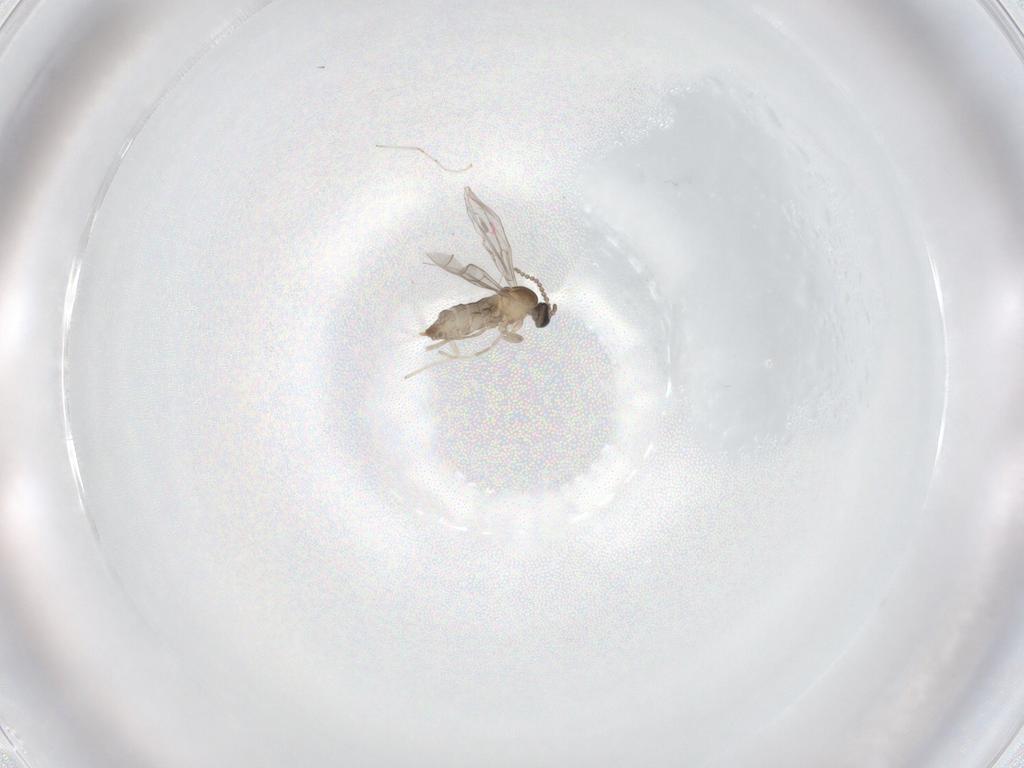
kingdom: Animalia
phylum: Arthropoda
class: Insecta
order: Diptera
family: Cecidomyiidae
